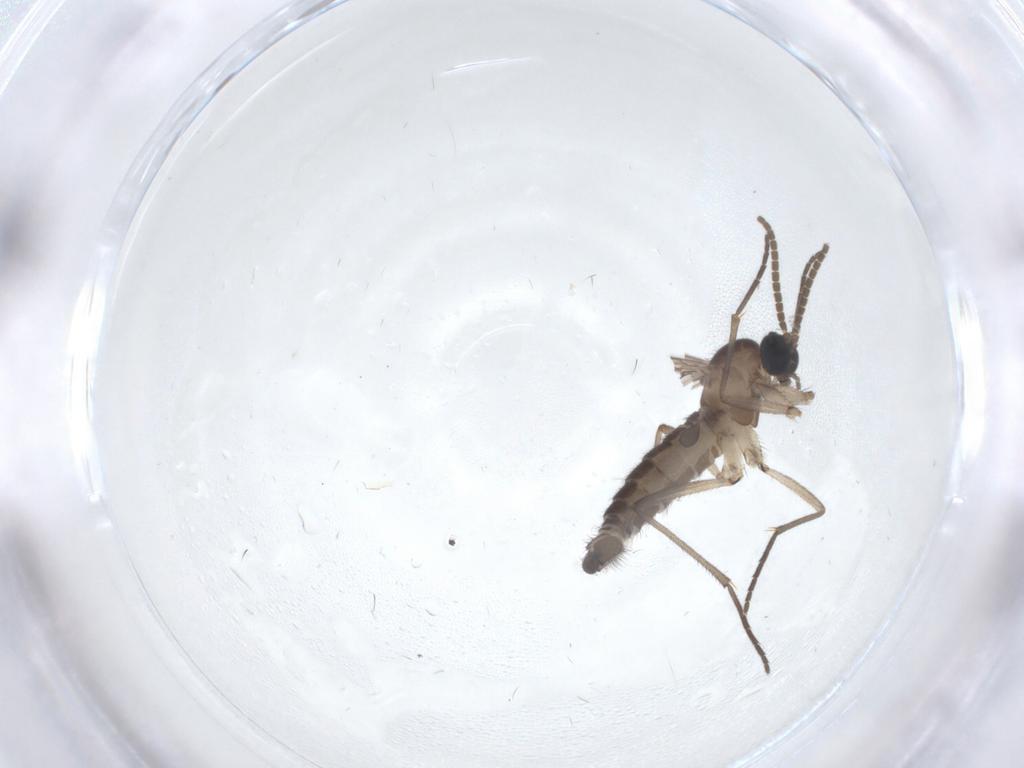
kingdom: Animalia
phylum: Arthropoda
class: Insecta
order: Diptera
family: Chironomidae
